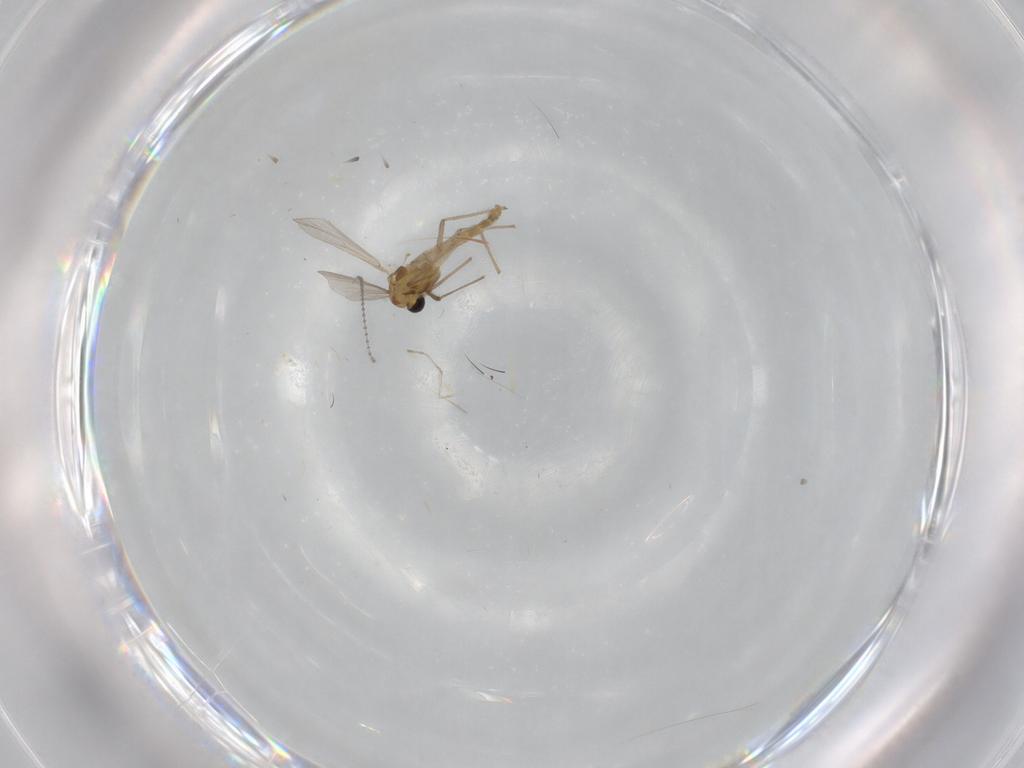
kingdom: Animalia
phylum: Arthropoda
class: Insecta
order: Diptera
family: Cecidomyiidae
